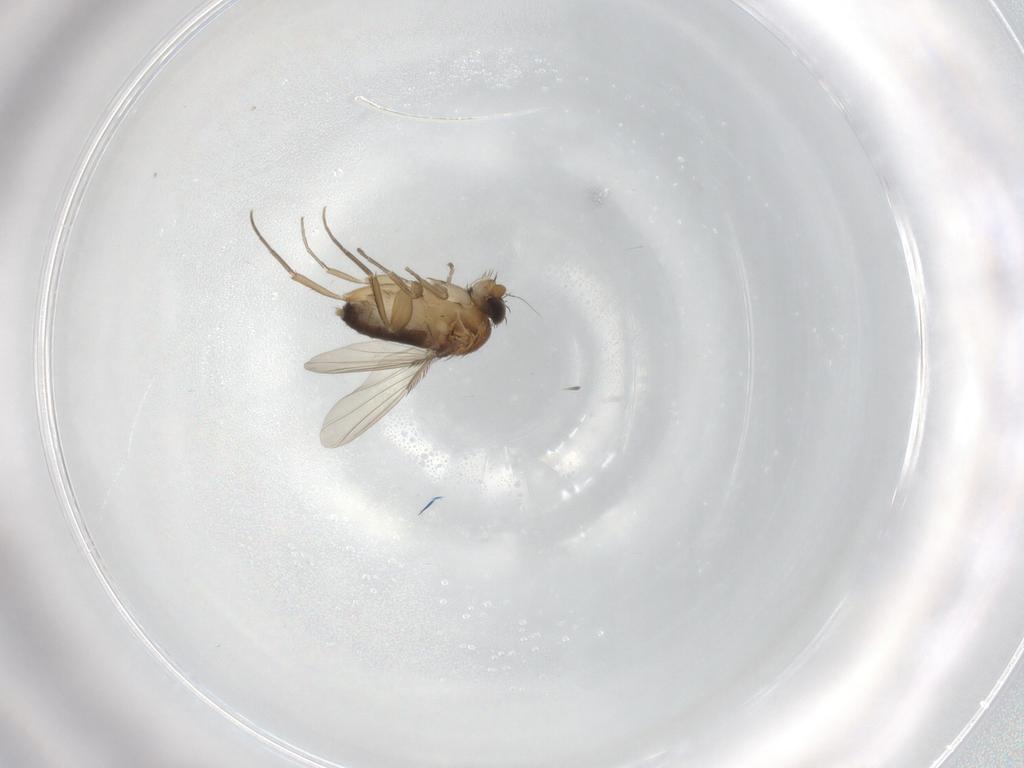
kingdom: Animalia
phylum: Arthropoda
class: Insecta
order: Diptera
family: Phoridae
